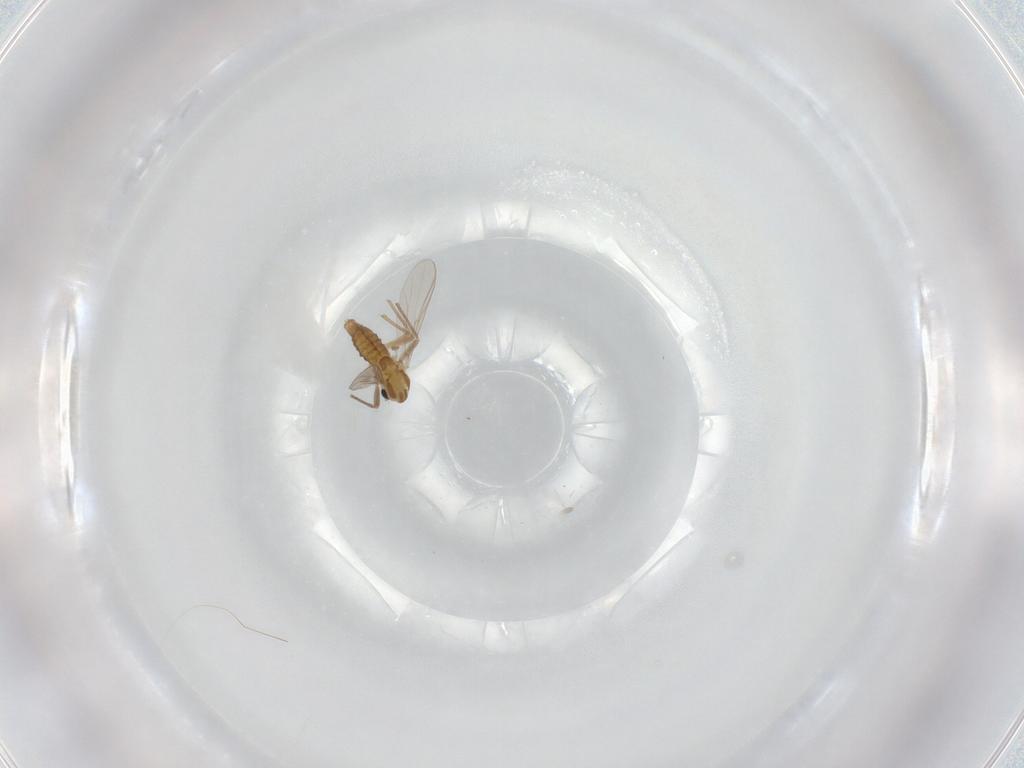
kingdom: Animalia
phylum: Arthropoda
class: Insecta
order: Diptera
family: Chironomidae
